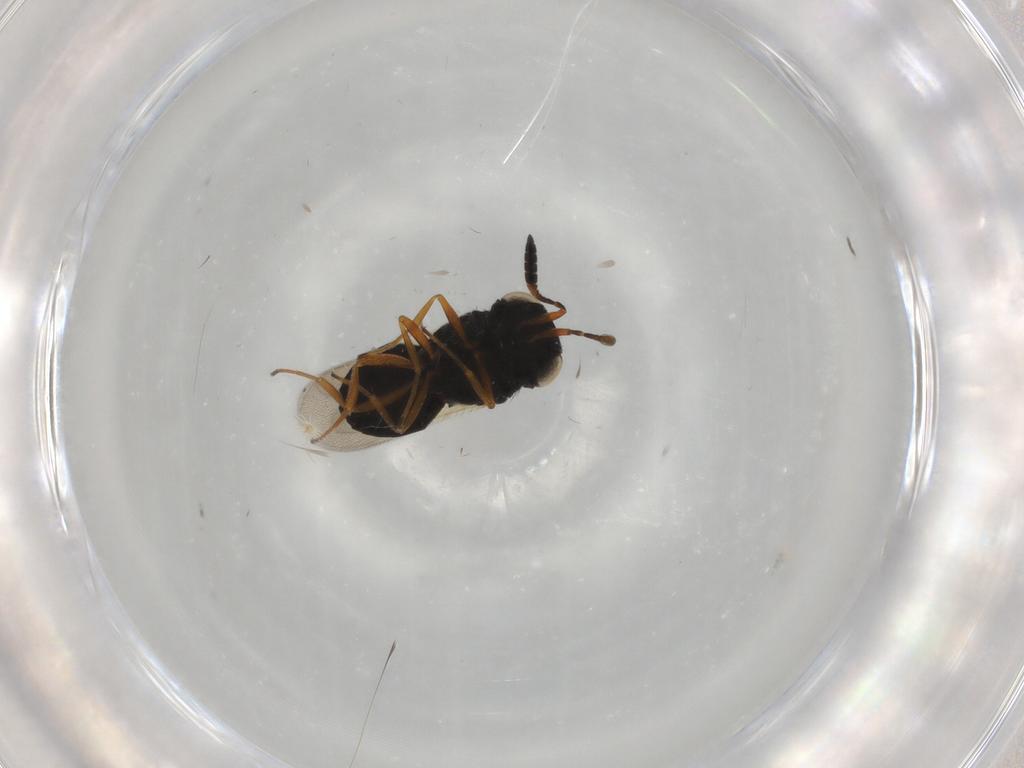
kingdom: Animalia
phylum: Arthropoda
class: Insecta
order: Hymenoptera
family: Scelionidae
